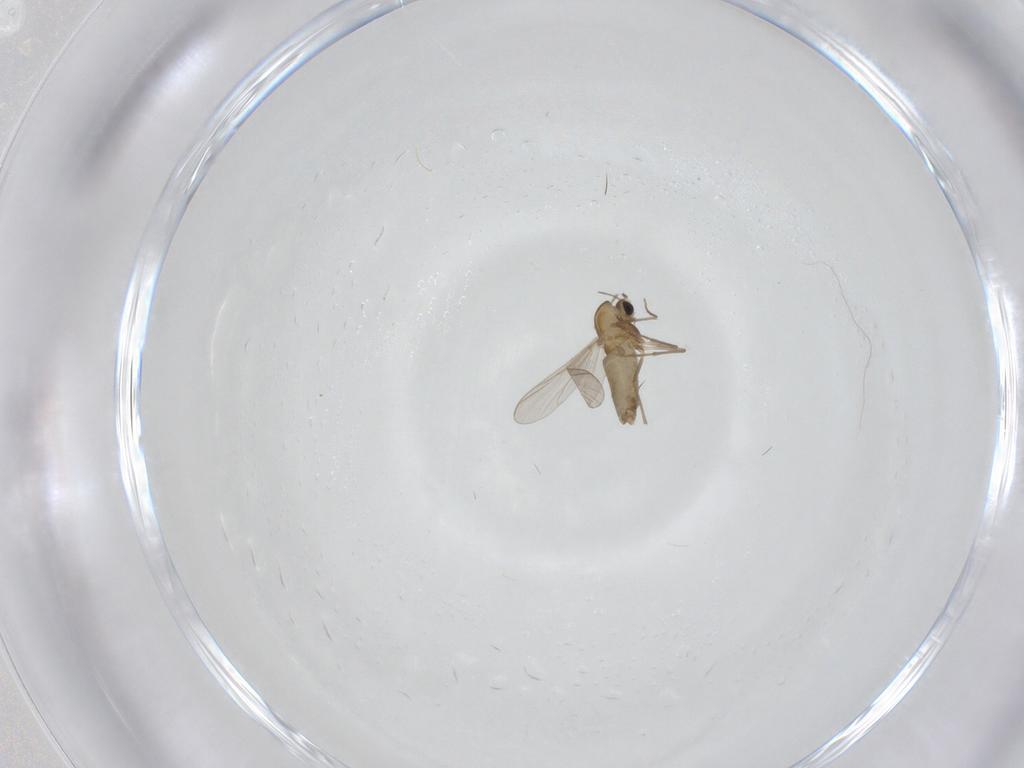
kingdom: Animalia
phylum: Arthropoda
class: Insecta
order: Diptera
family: Chironomidae
